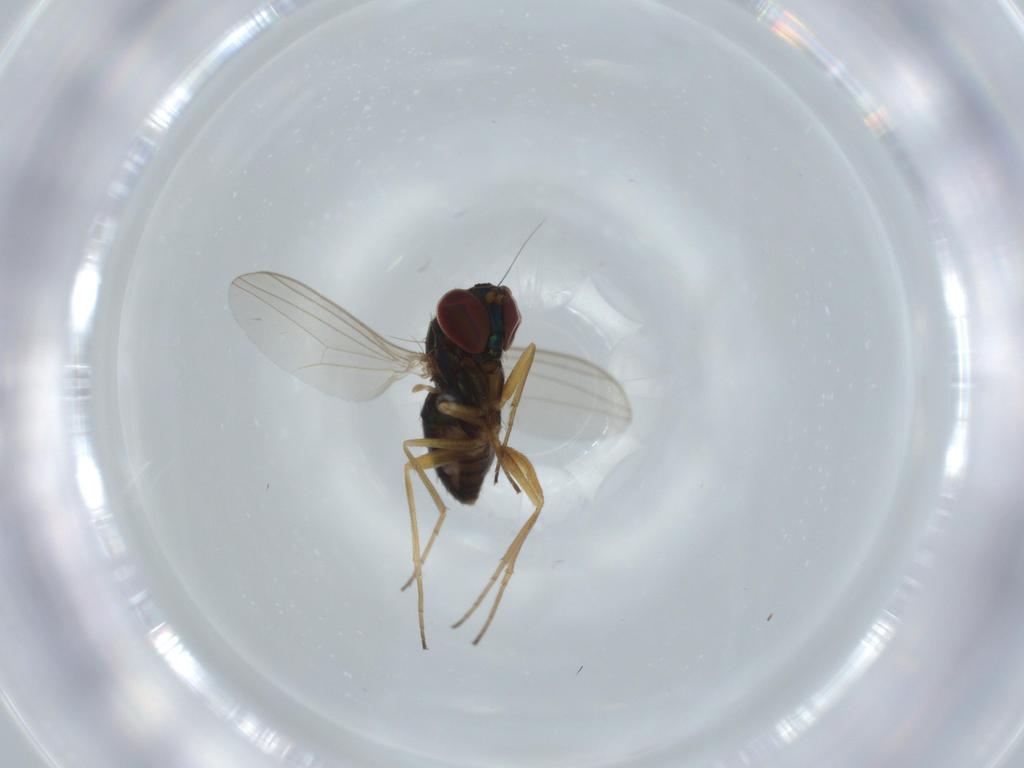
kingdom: Animalia
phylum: Arthropoda
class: Insecta
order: Diptera
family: Dolichopodidae
